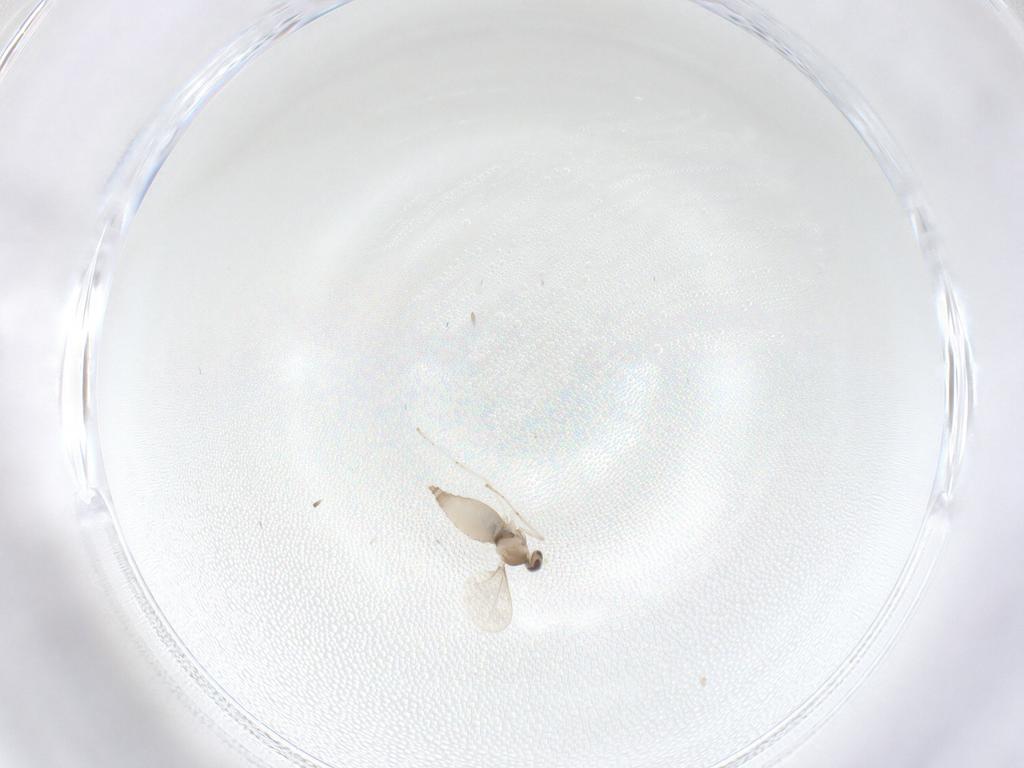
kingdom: Animalia
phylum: Arthropoda
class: Insecta
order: Diptera
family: Cecidomyiidae
